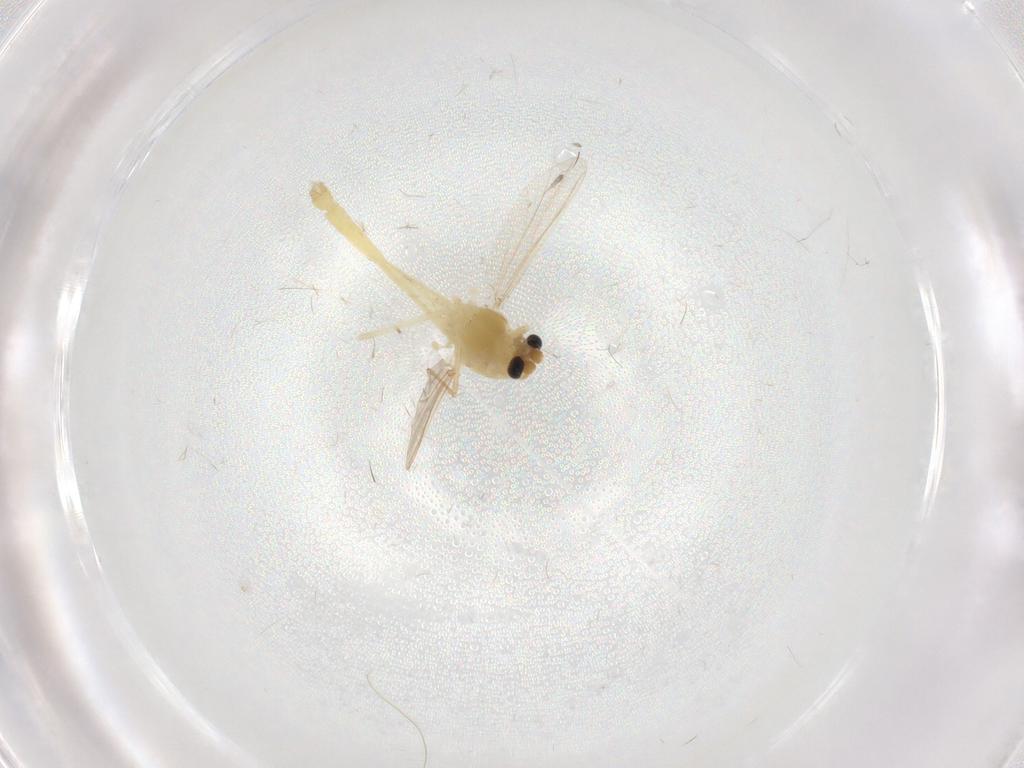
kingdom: Animalia
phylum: Arthropoda
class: Insecta
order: Diptera
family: Chironomidae
